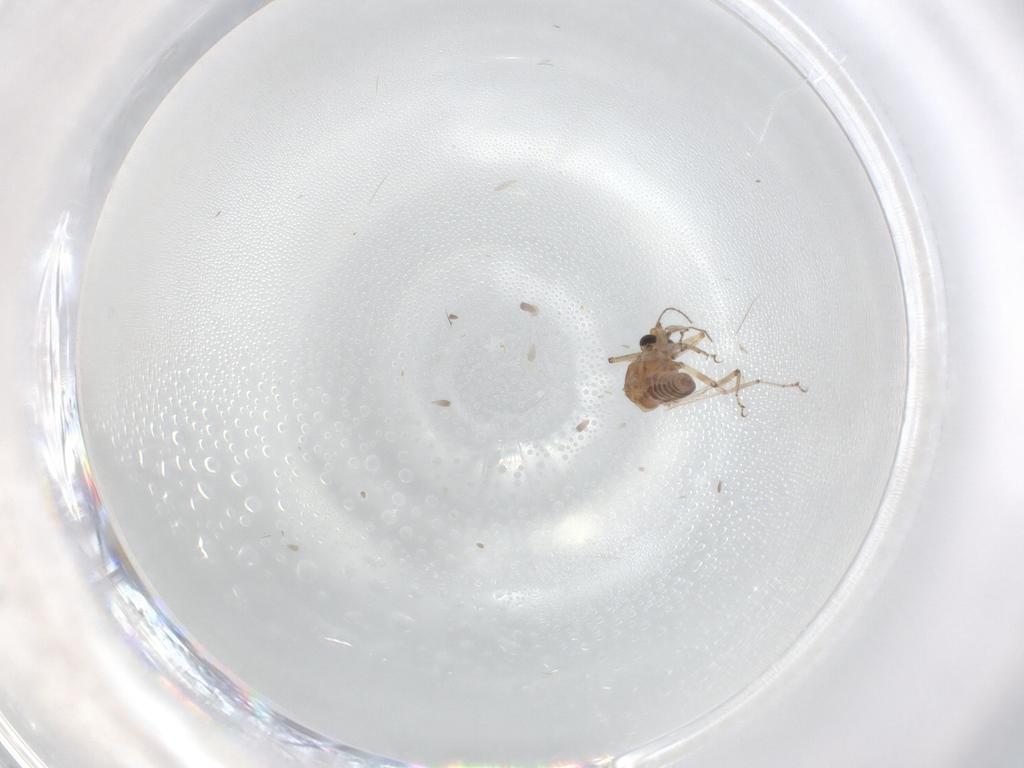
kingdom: Animalia
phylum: Arthropoda
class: Insecta
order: Diptera
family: Ceratopogonidae
